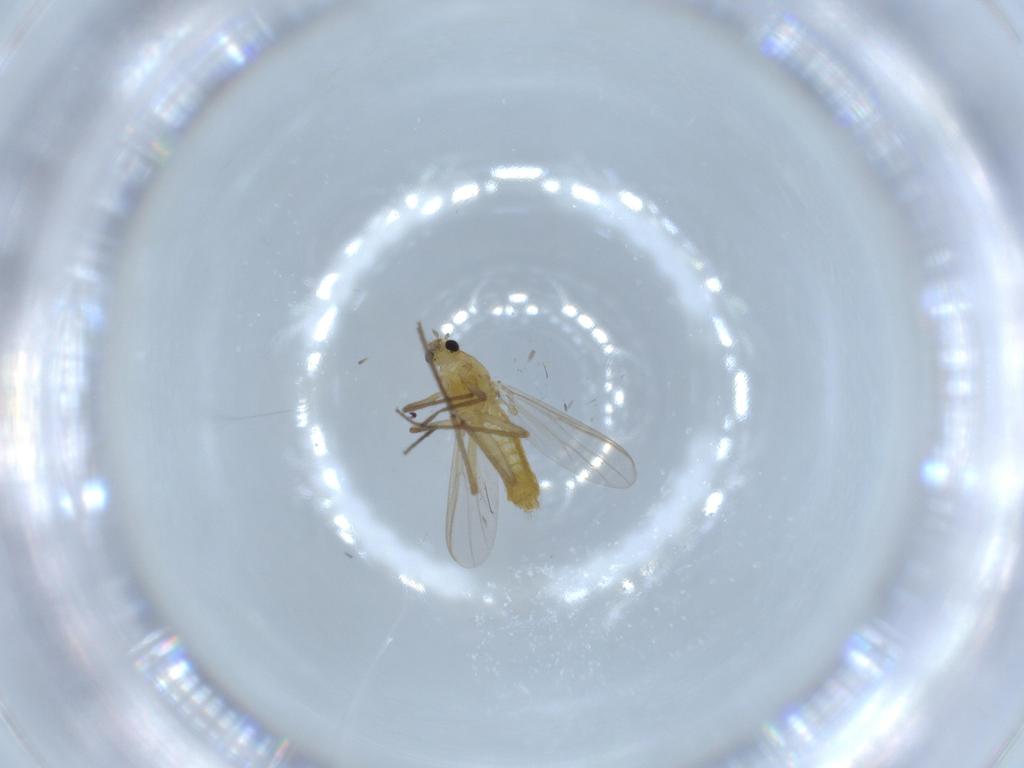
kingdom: Animalia
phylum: Arthropoda
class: Insecta
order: Diptera
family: Chironomidae
